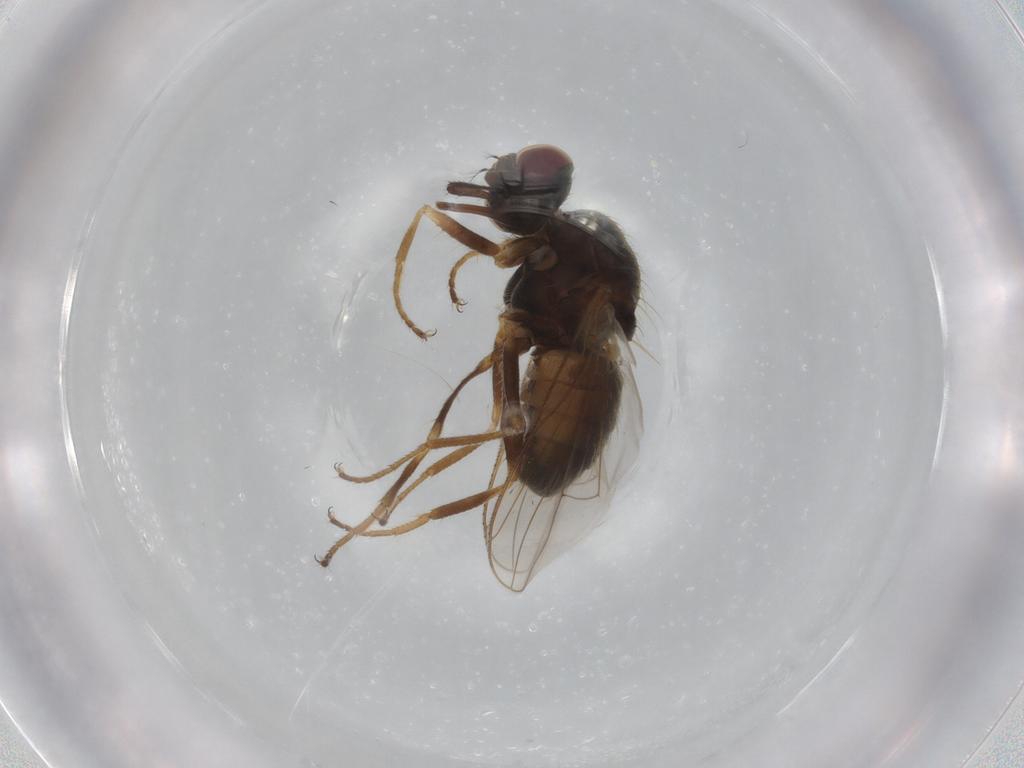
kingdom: Animalia
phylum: Arthropoda
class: Insecta
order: Diptera
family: Muscidae
